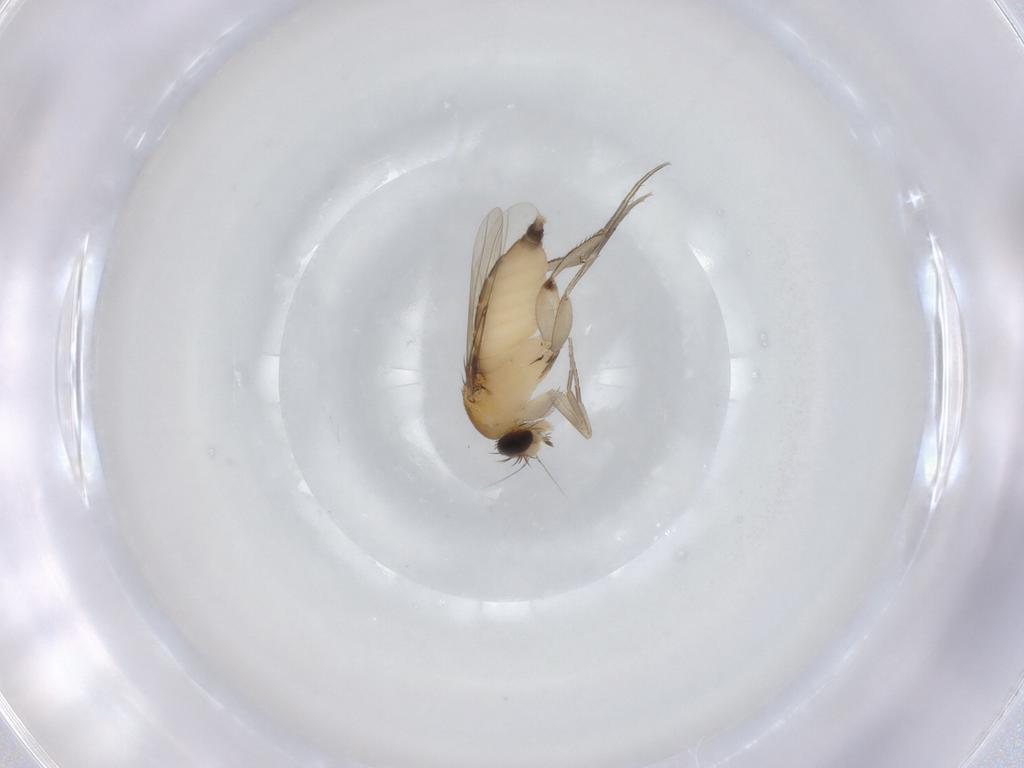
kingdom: Animalia
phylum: Arthropoda
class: Insecta
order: Diptera
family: Phoridae
